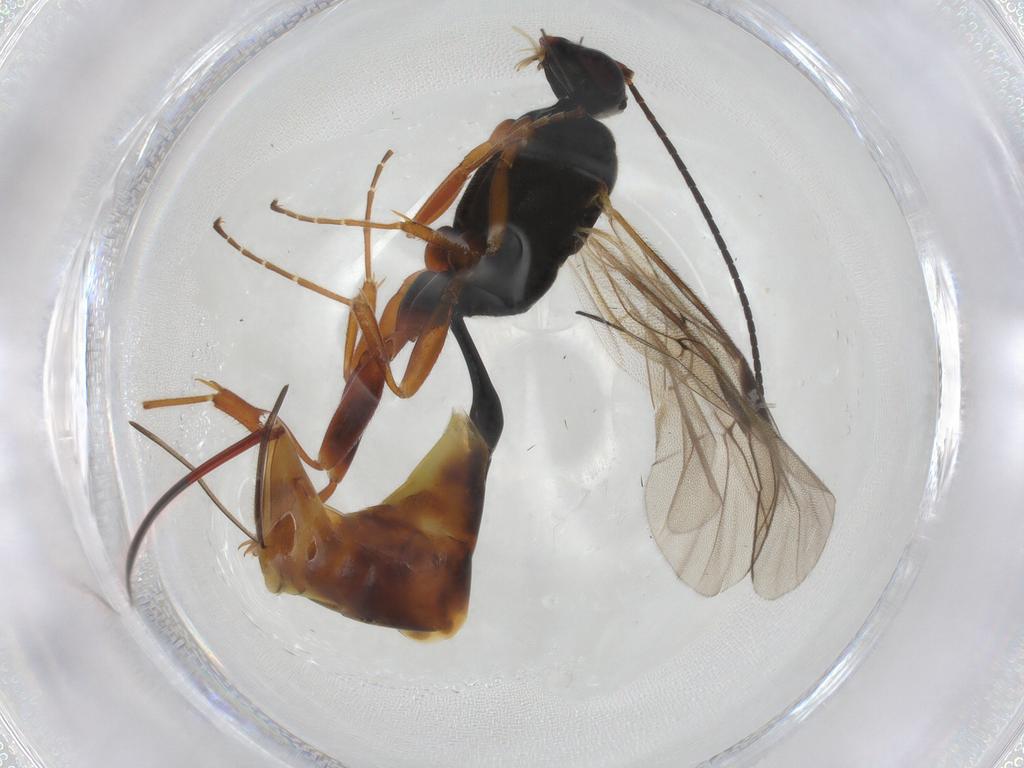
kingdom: Animalia
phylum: Arthropoda
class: Insecta
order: Hymenoptera
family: Ichneumonidae
